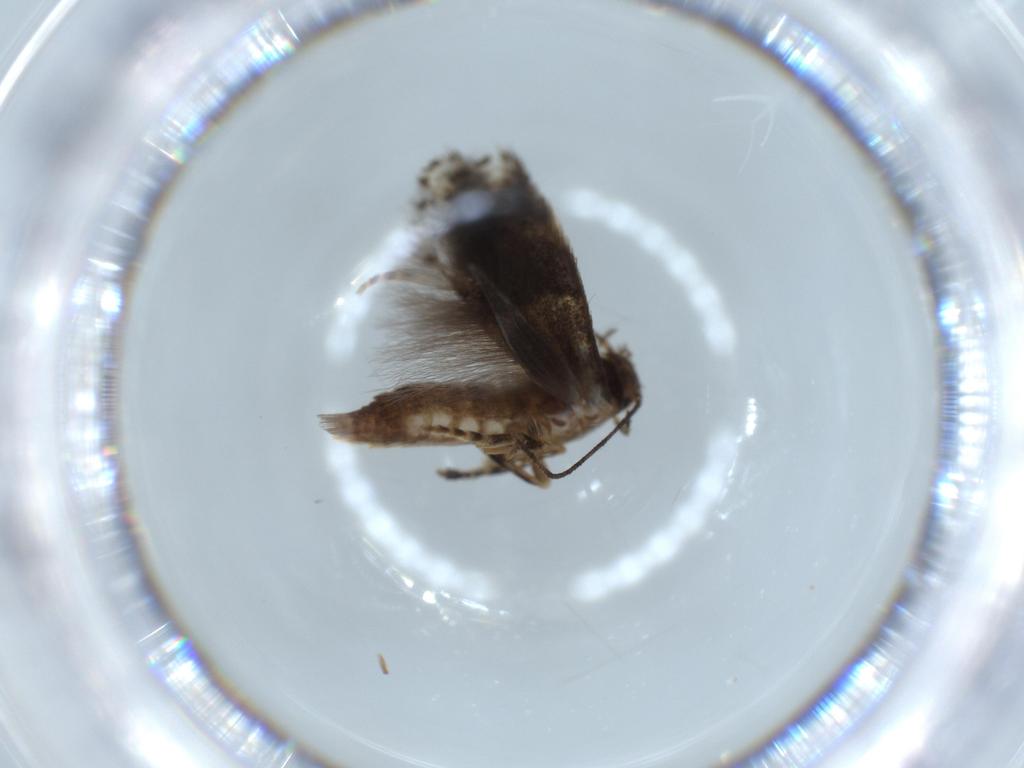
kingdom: Animalia
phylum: Arthropoda
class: Insecta
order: Lepidoptera
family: Elachistidae
